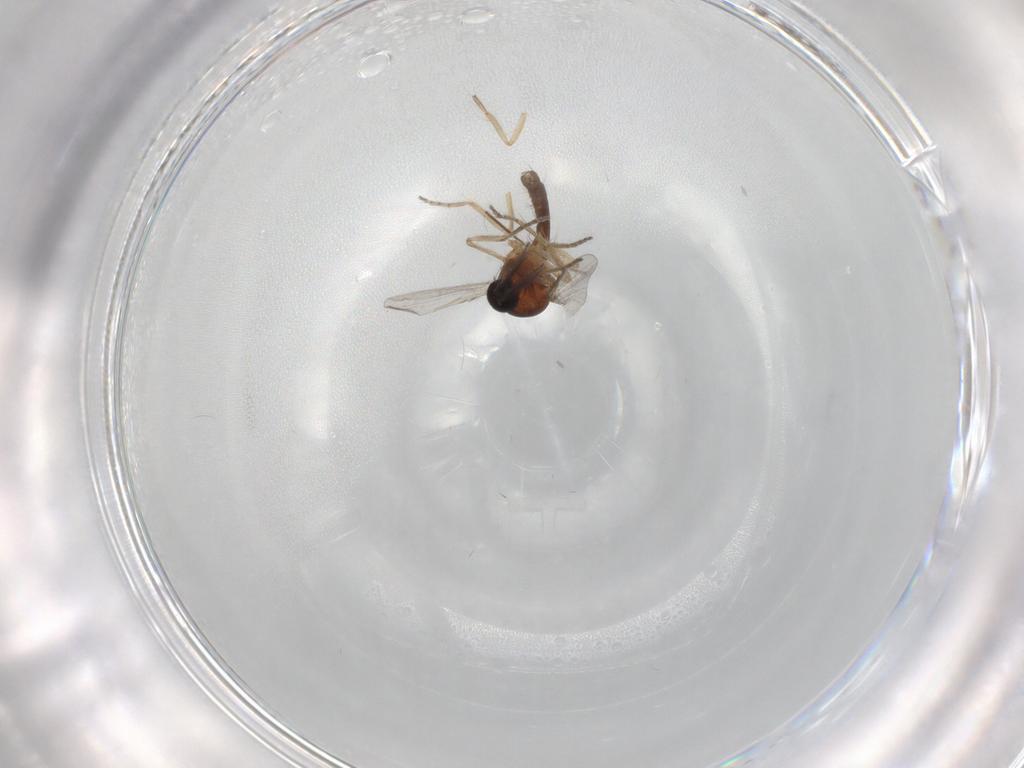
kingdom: Animalia
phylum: Arthropoda
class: Insecta
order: Diptera
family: Ceratopogonidae
